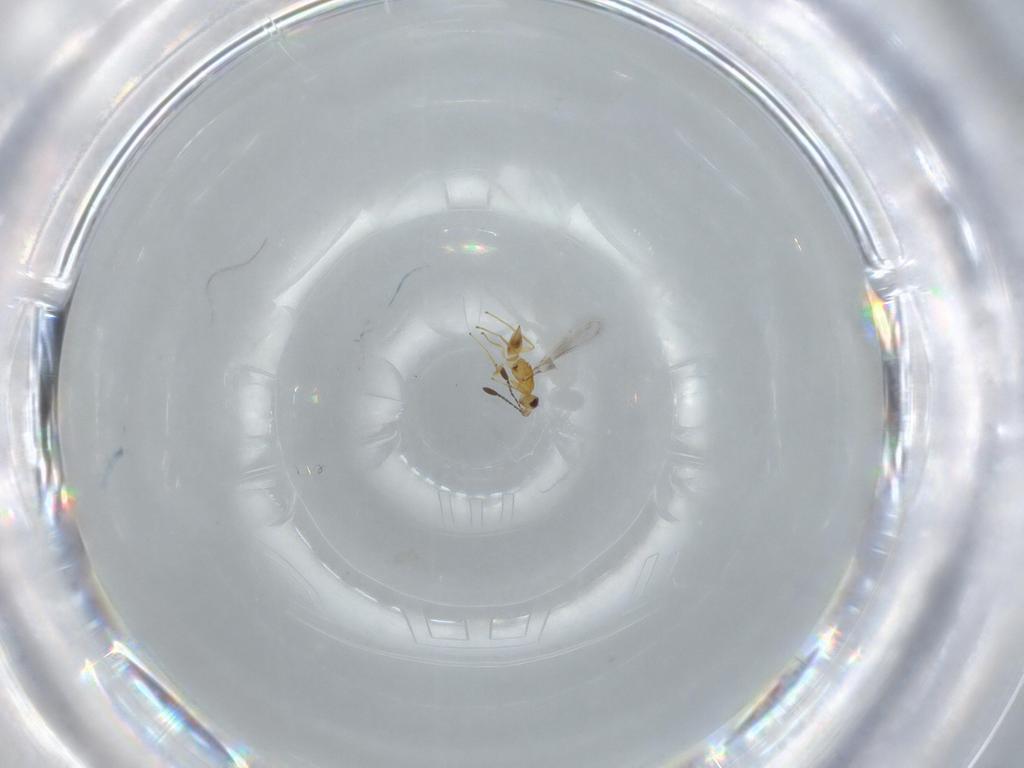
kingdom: Animalia
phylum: Arthropoda
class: Insecta
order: Hymenoptera
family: Mymaridae
